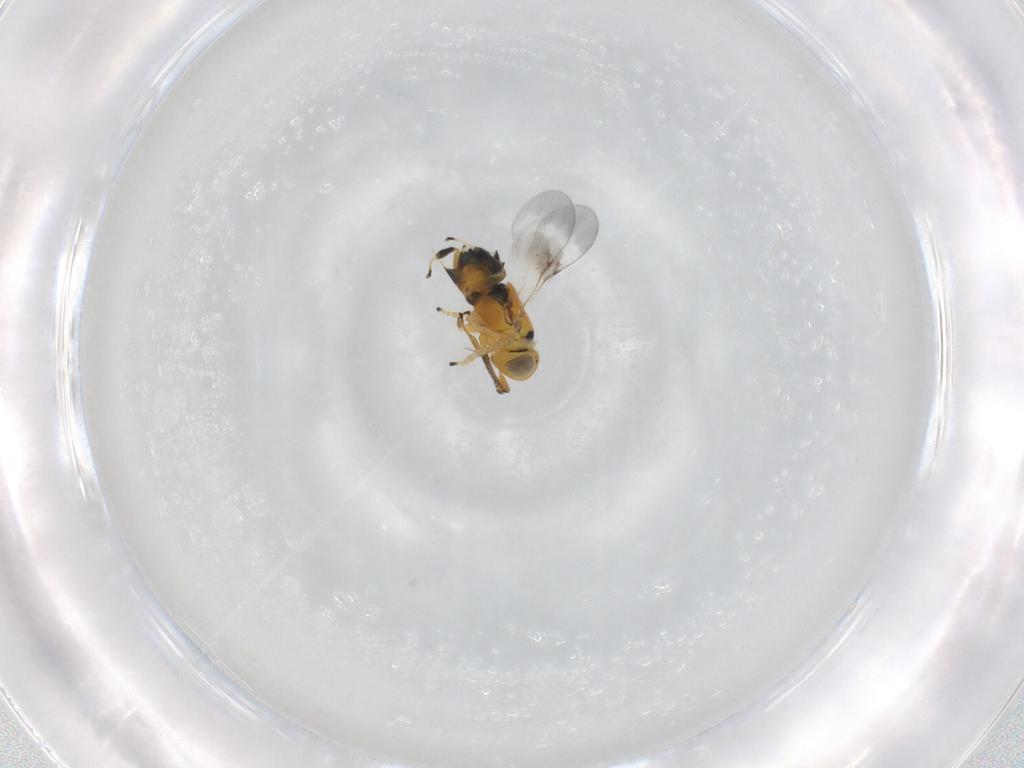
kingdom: Animalia
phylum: Arthropoda
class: Insecta
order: Hymenoptera
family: Encyrtidae
